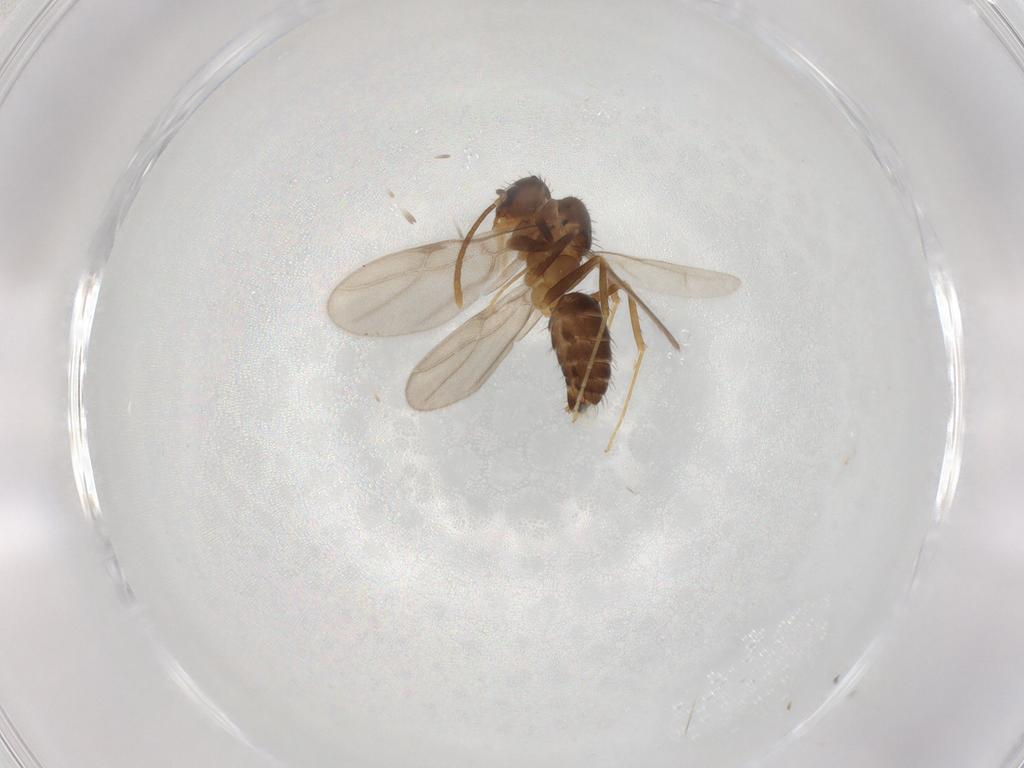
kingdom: Animalia
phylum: Arthropoda
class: Insecta
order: Hymenoptera
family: Formicidae
